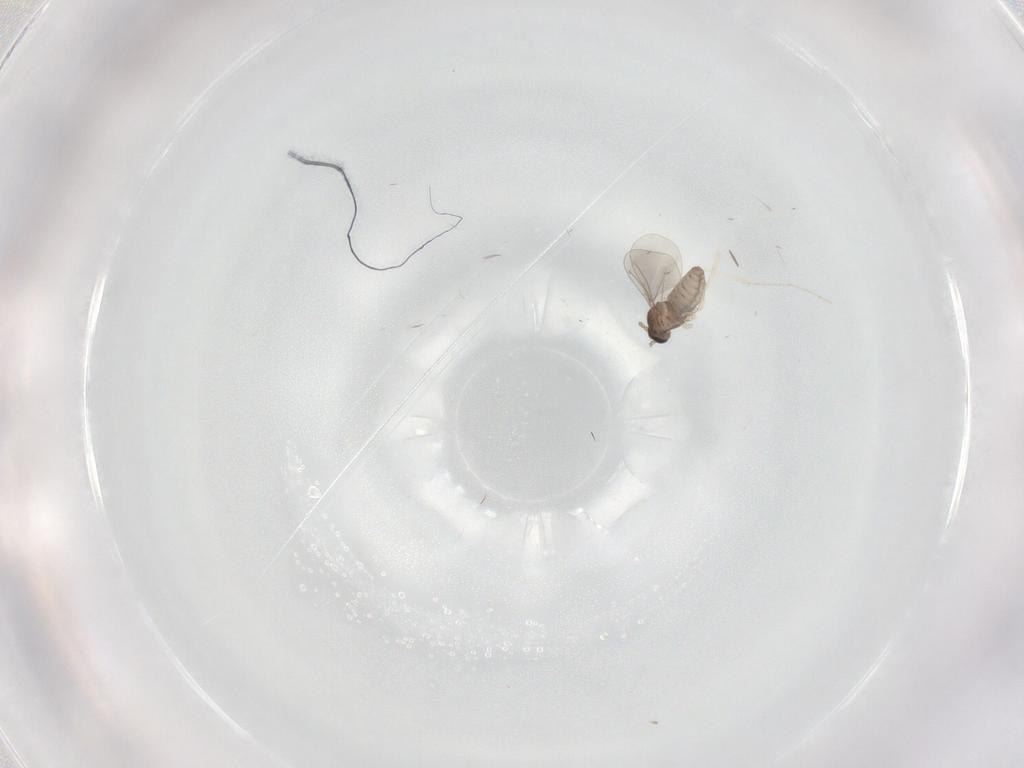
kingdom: Animalia
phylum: Arthropoda
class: Insecta
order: Diptera
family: Cecidomyiidae
